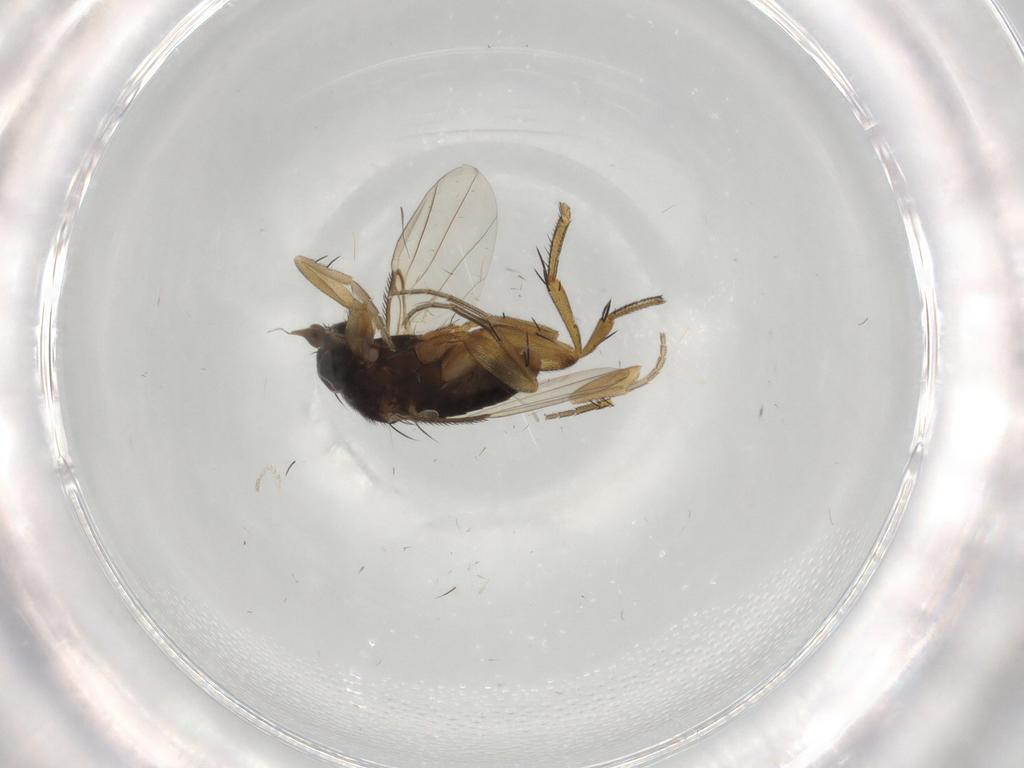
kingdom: Animalia
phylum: Arthropoda
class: Insecta
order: Diptera
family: Phoridae
